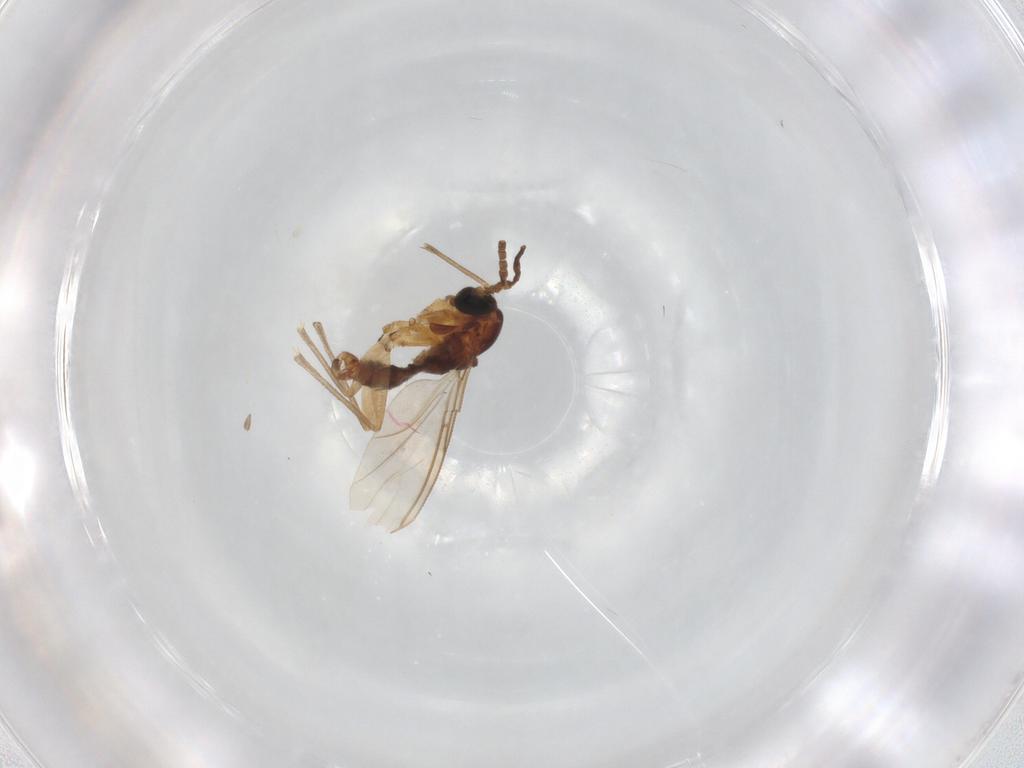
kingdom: Animalia
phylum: Arthropoda
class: Insecta
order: Diptera
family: Ephydridae
